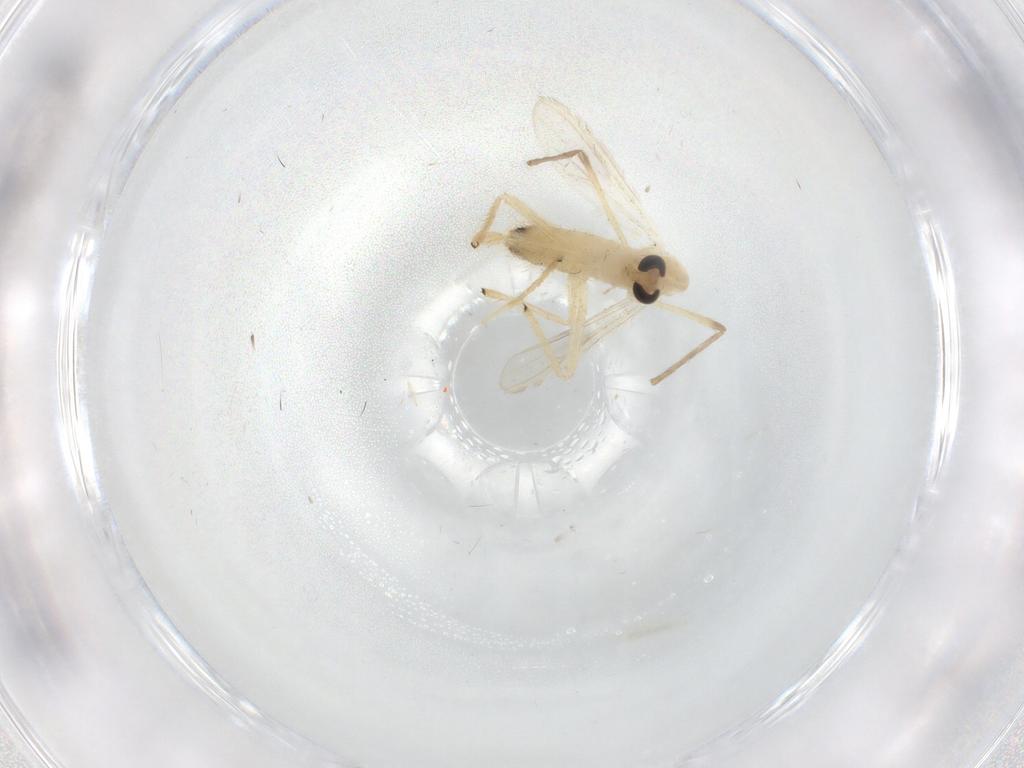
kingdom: Animalia
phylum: Arthropoda
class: Insecta
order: Diptera
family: Chironomidae
